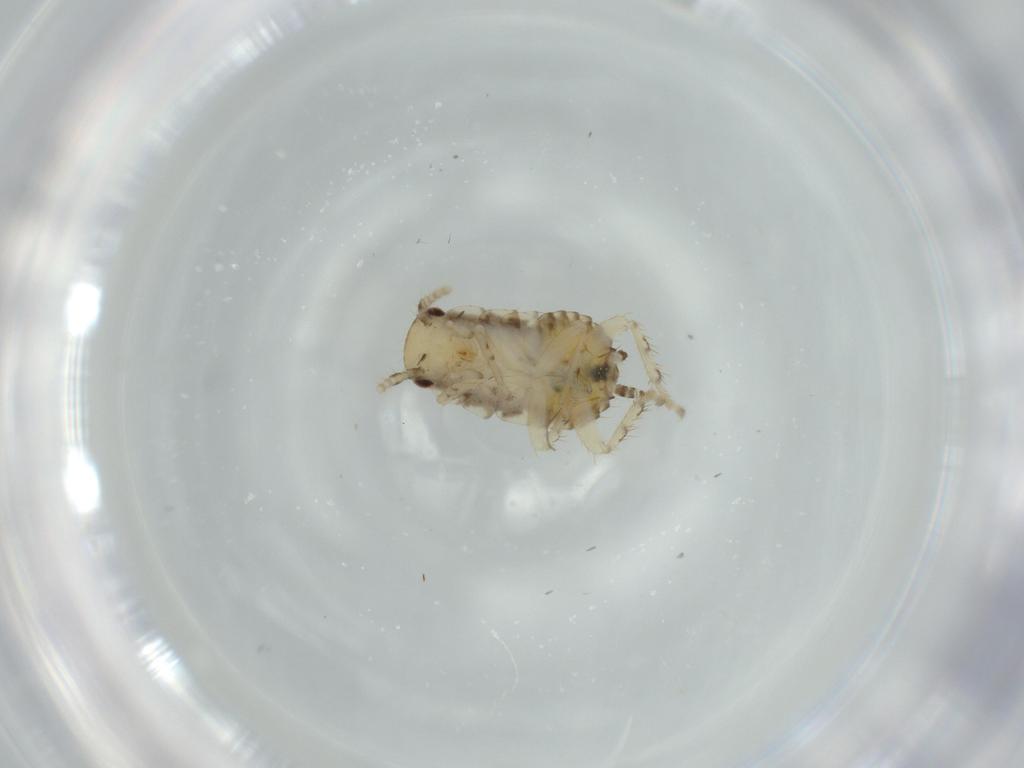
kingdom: Animalia
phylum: Arthropoda
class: Insecta
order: Blattodea
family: Ectobiidae
